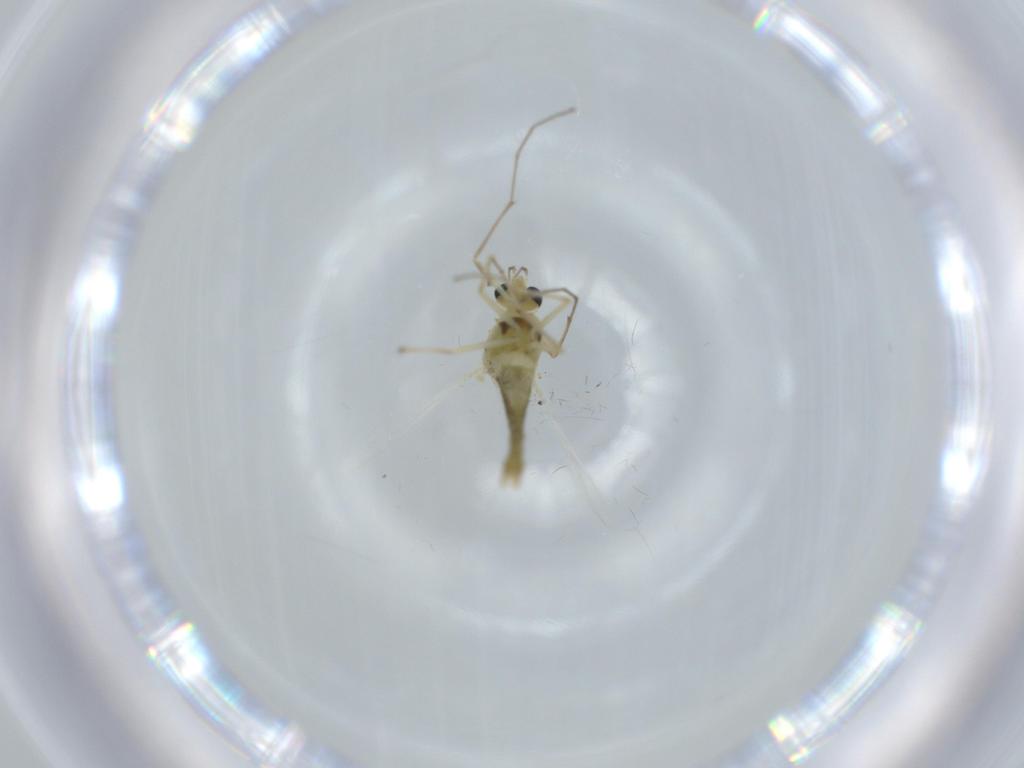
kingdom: Animalia
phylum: Arthropoda
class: Insecta
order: Diptera
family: Chironomidae
